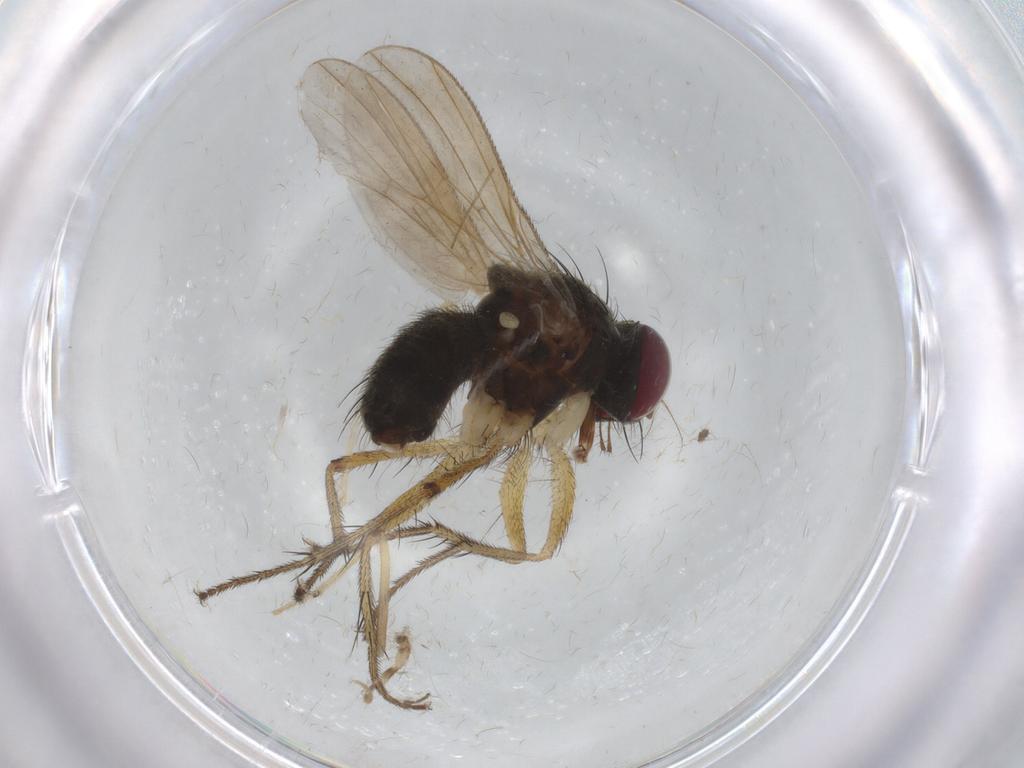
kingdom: Animalia
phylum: Arthropoda
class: Insecta
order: Diptera
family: Muscidae
